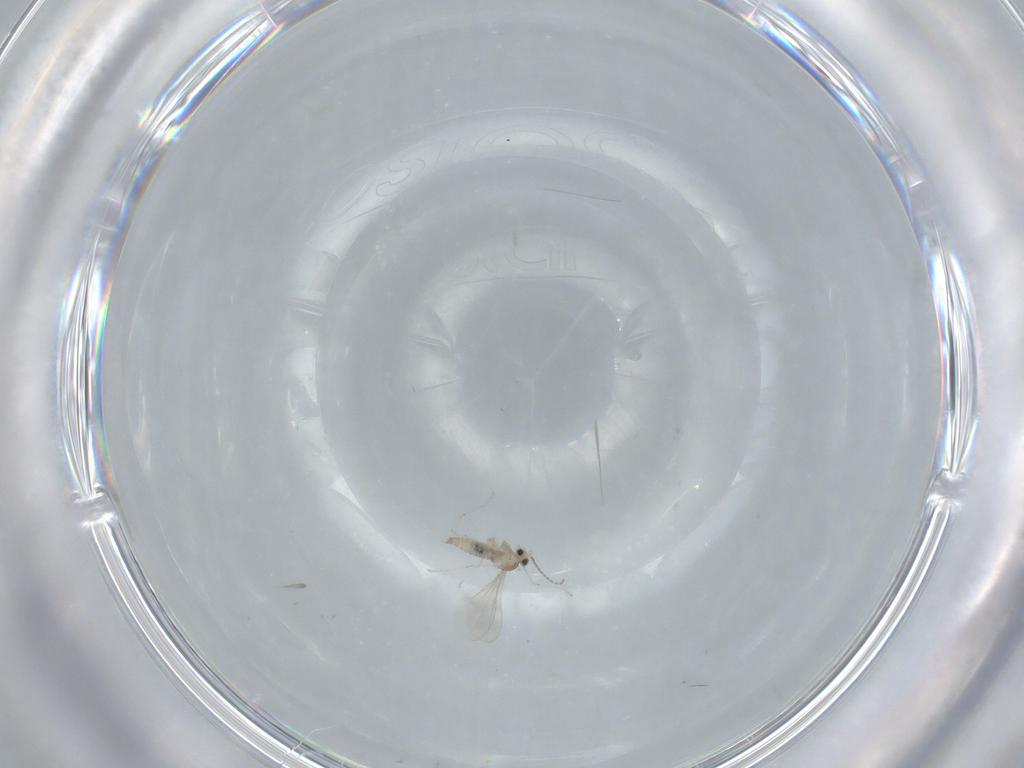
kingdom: Animalia
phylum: Arthropoda
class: Insecta
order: Diptera
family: Cecidomyiidae
